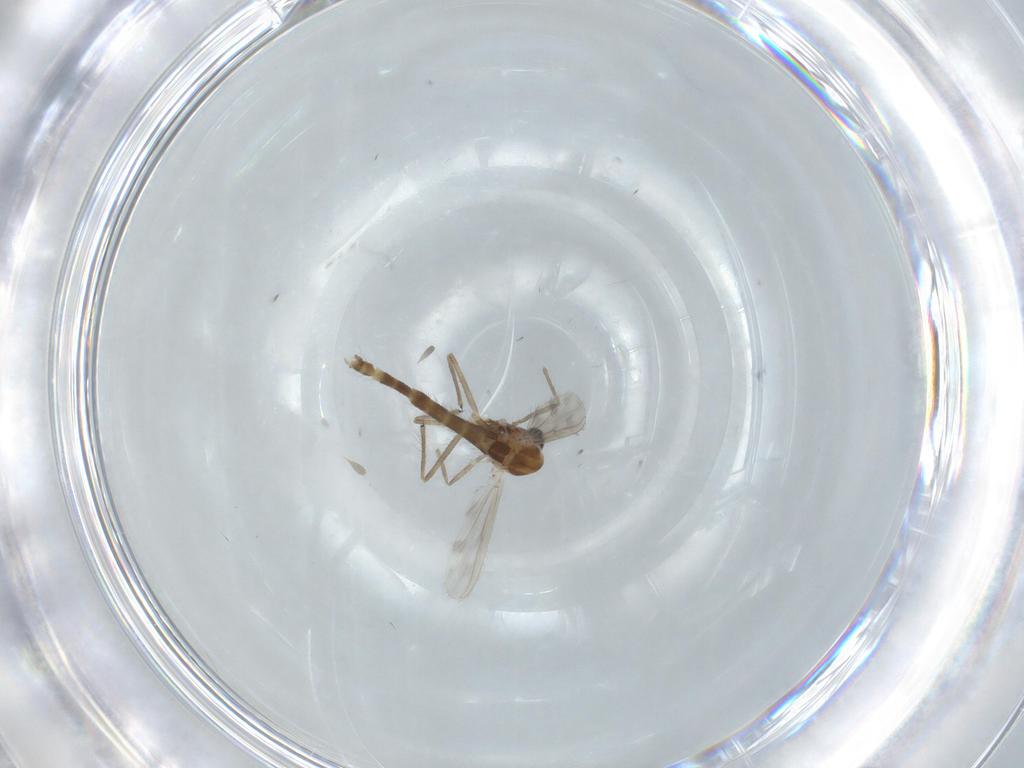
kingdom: Animalia
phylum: Arthropoda
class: Insecta
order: Diptera
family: Chironomidae
